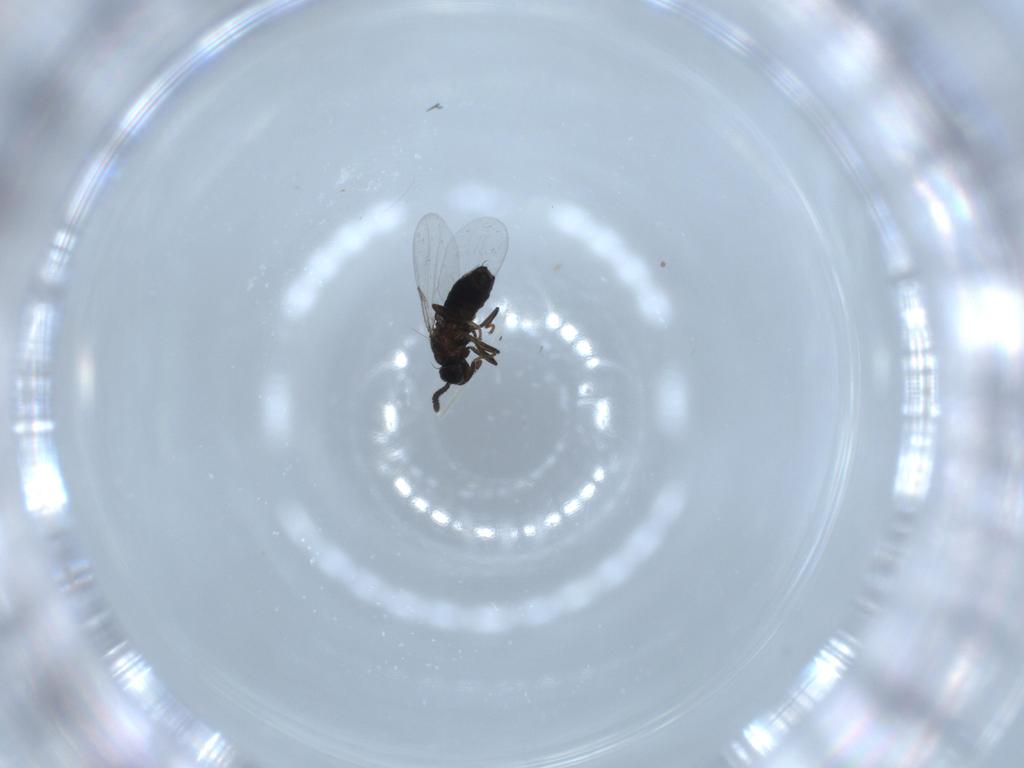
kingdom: Animalia
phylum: Arthropoda
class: Insecta
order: Diptera
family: Scatopsidae
